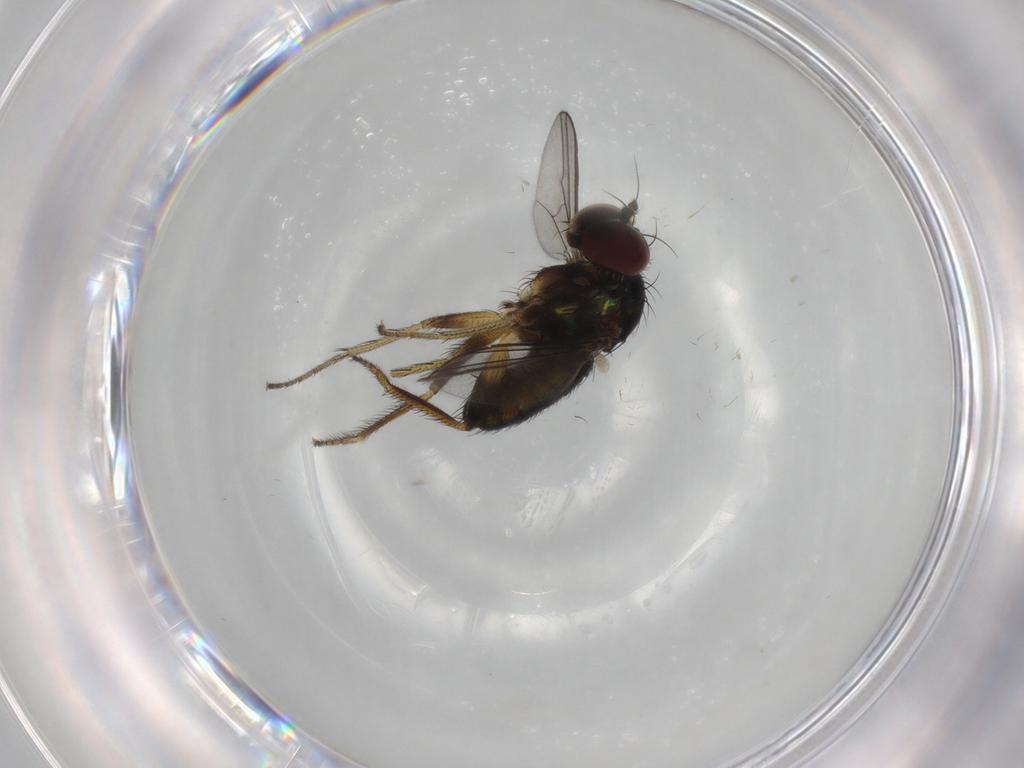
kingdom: Animalia
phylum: Arthropoda
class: Insecta
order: Diptera
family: Dolichopodidae
